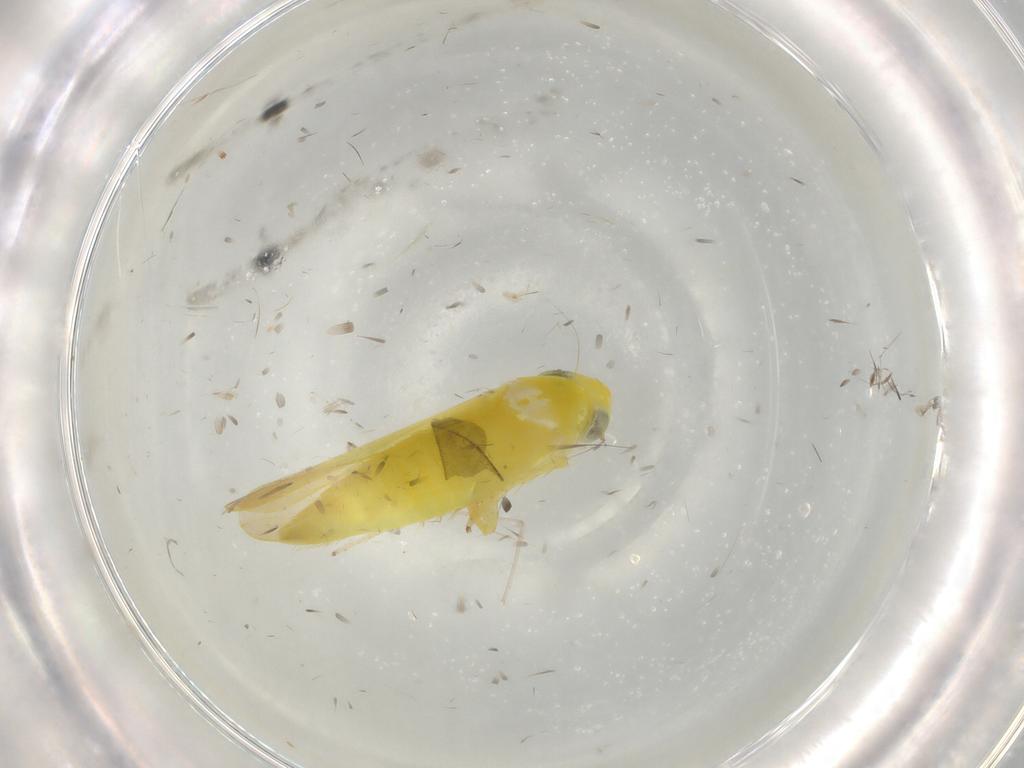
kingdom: Animalia
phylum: Arthropoda
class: Insecta
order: Hemiptera
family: Cicadellidae
